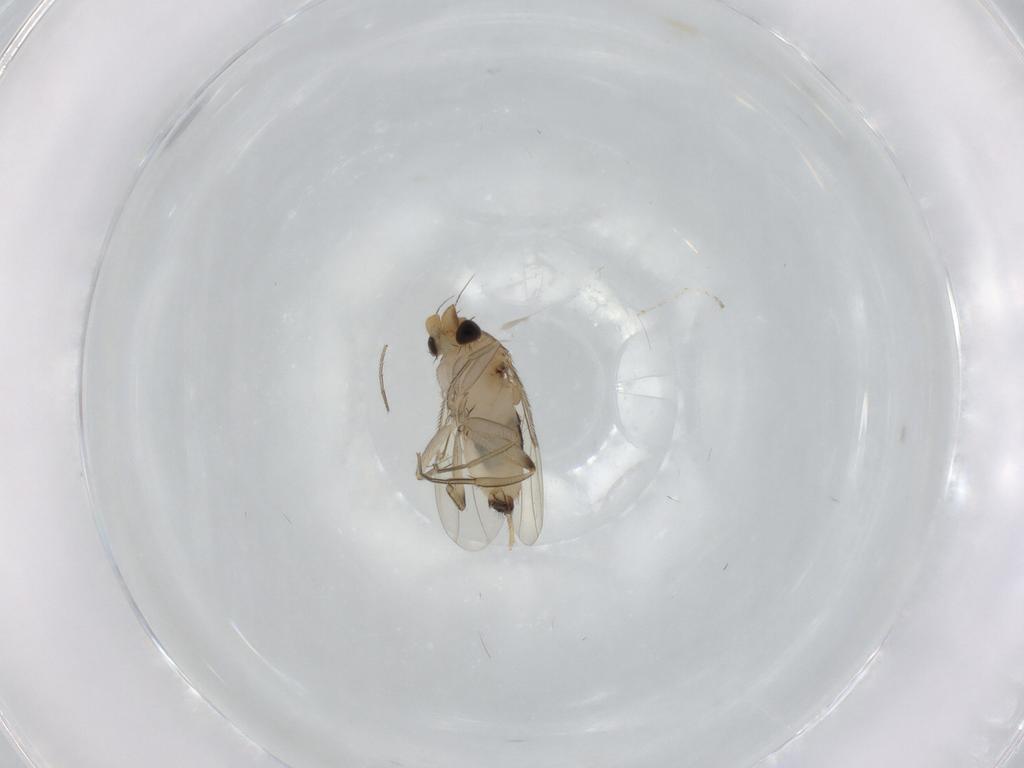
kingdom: Animalia
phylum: Arthropoda
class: Insecta
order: Diptera
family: Phoridae
